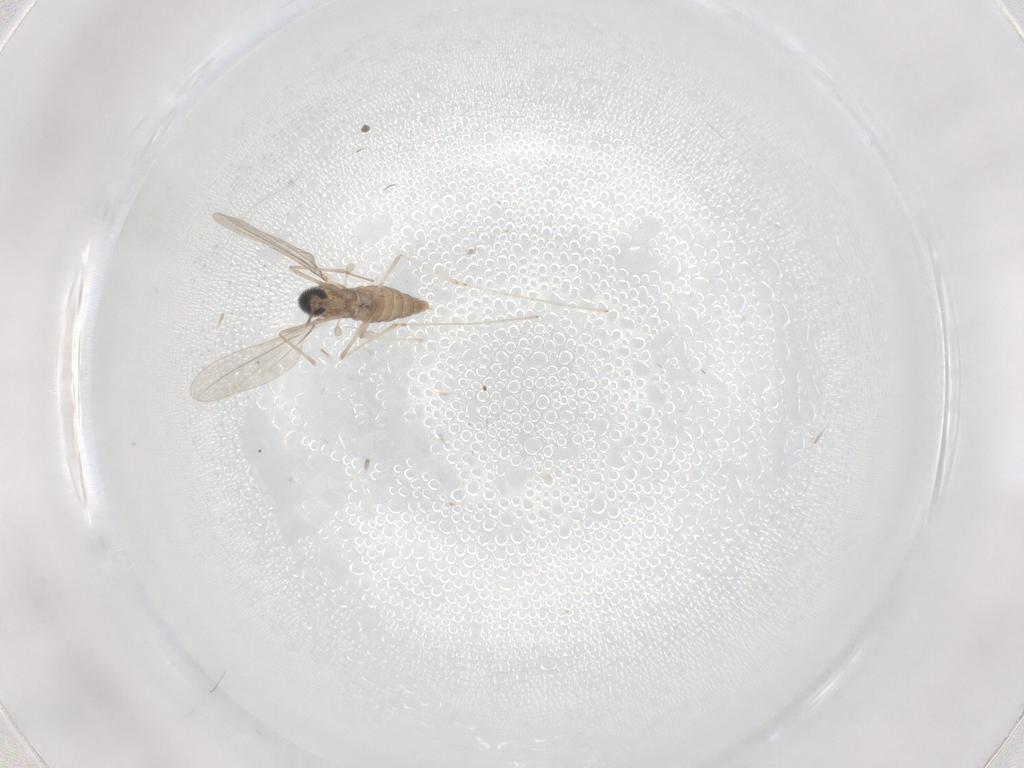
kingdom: Animalia
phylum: Arthropoda
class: Insecta
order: Diptera
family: Cecidomyiidae
